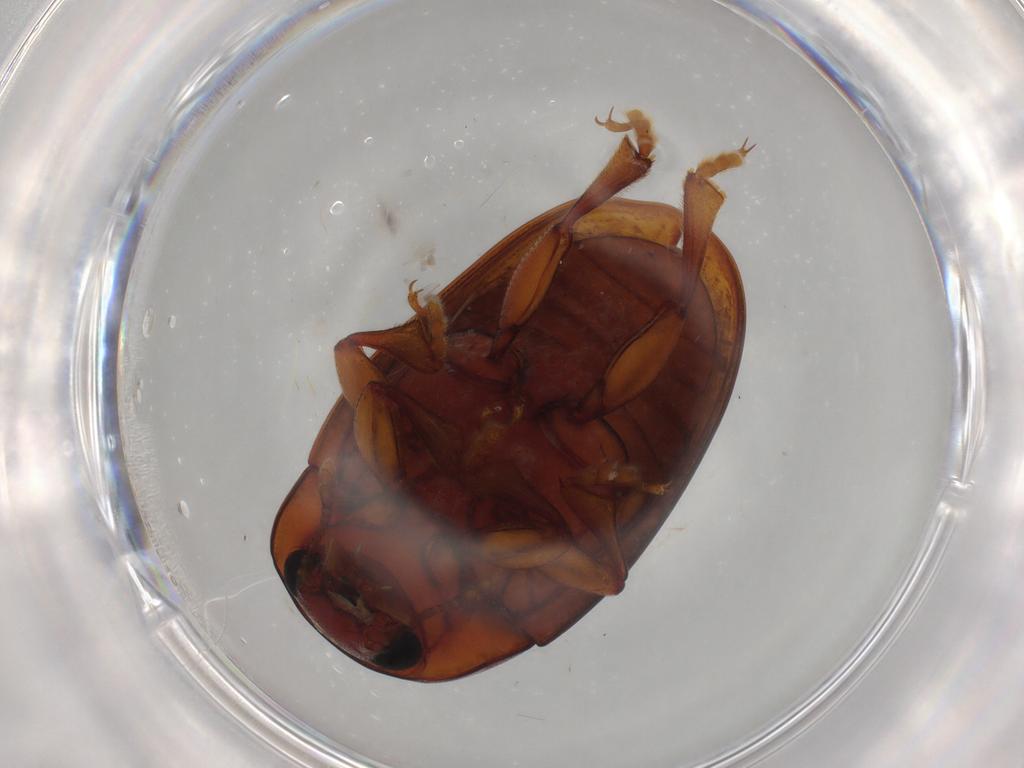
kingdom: Animalia
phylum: Arthropoda
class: Insecta
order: Coleoptera
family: Erotylidae
